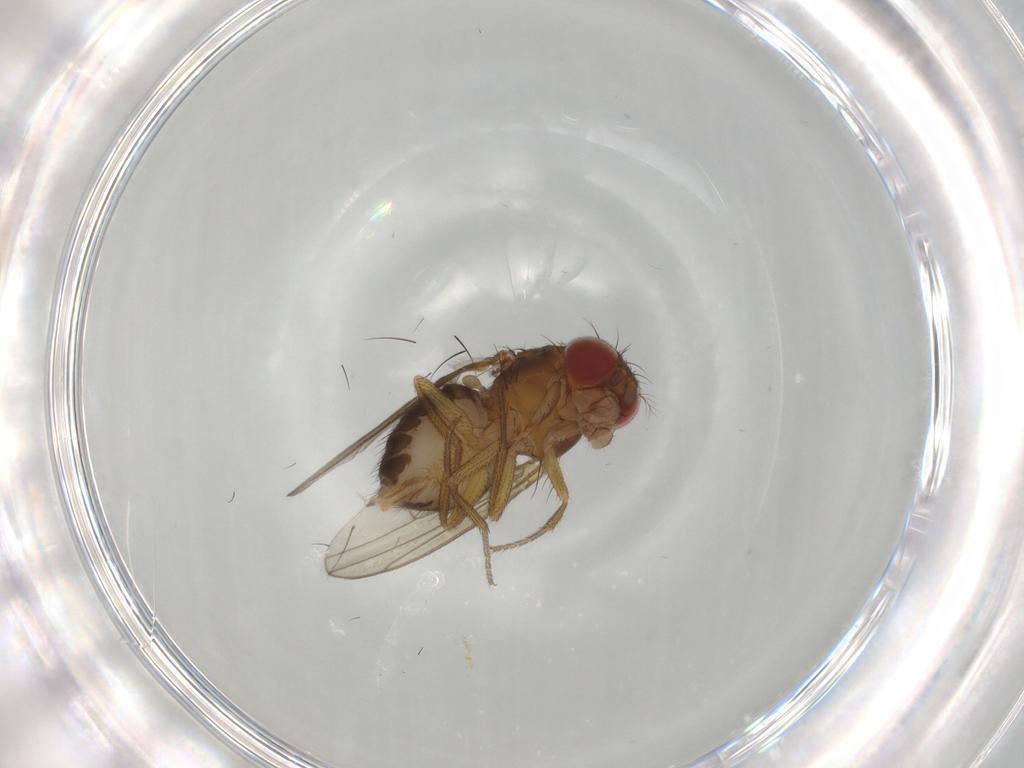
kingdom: Animalia
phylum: Arthropoda
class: Insecta
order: Diptera
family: Drosophilidae
